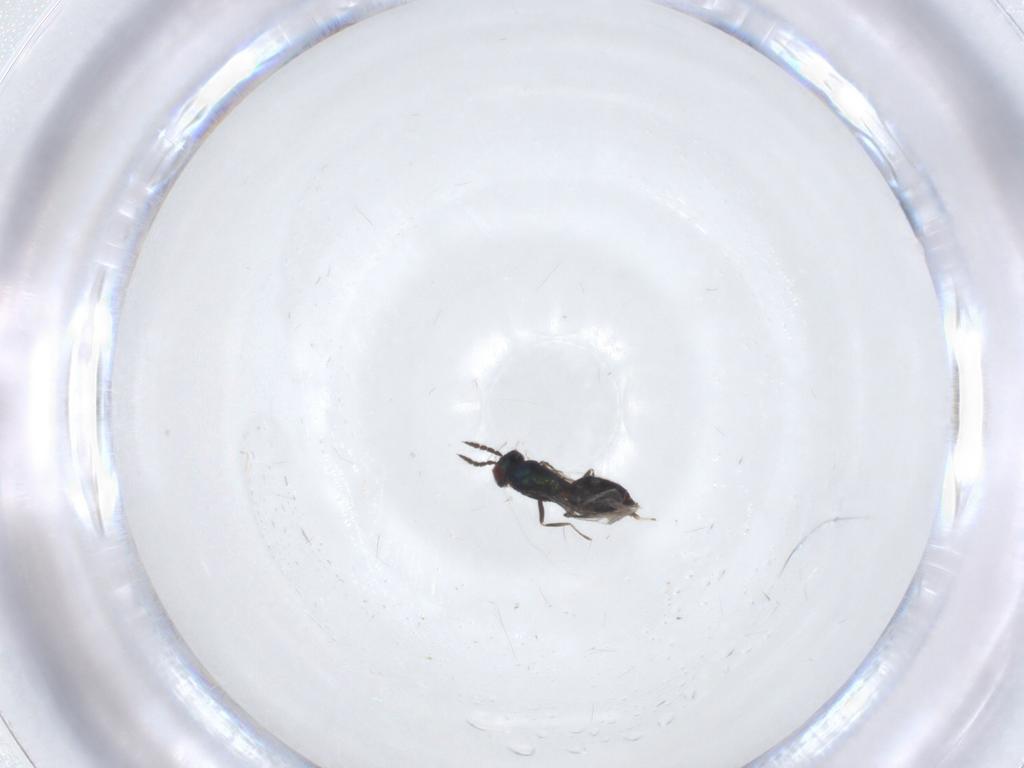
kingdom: Animalia
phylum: Arthropoda
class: Insecta
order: Hymenoptera
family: Eulophidae
